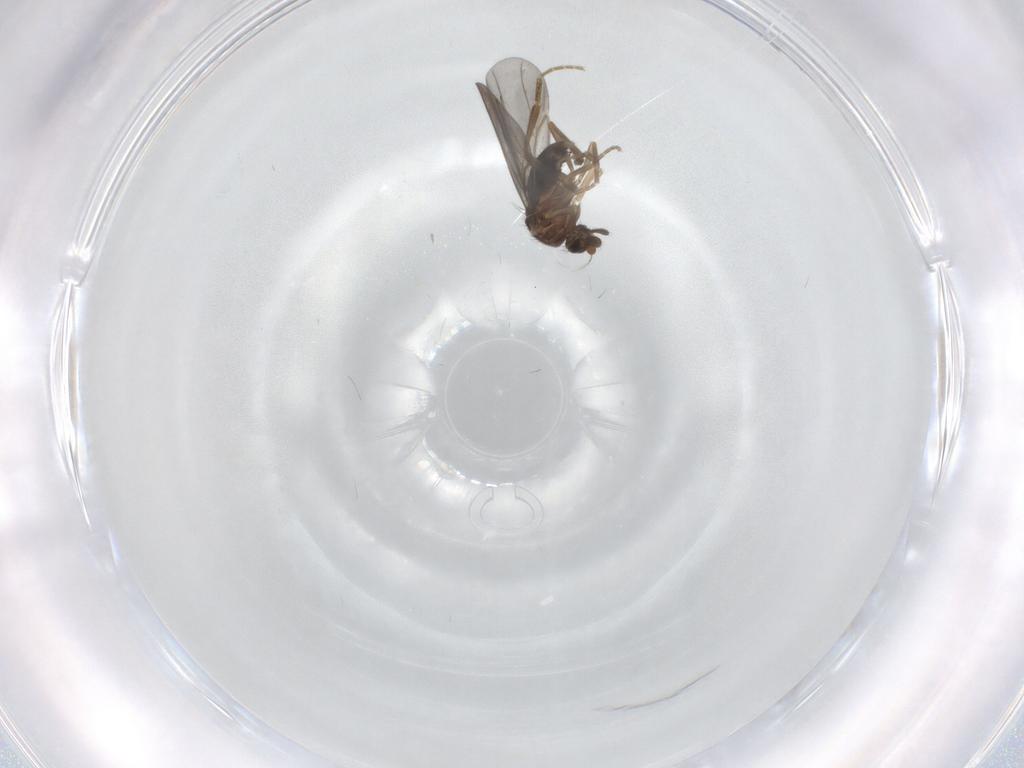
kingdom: Animalia
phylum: Arthropoda
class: Insecta
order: Diptera
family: Phoridae
